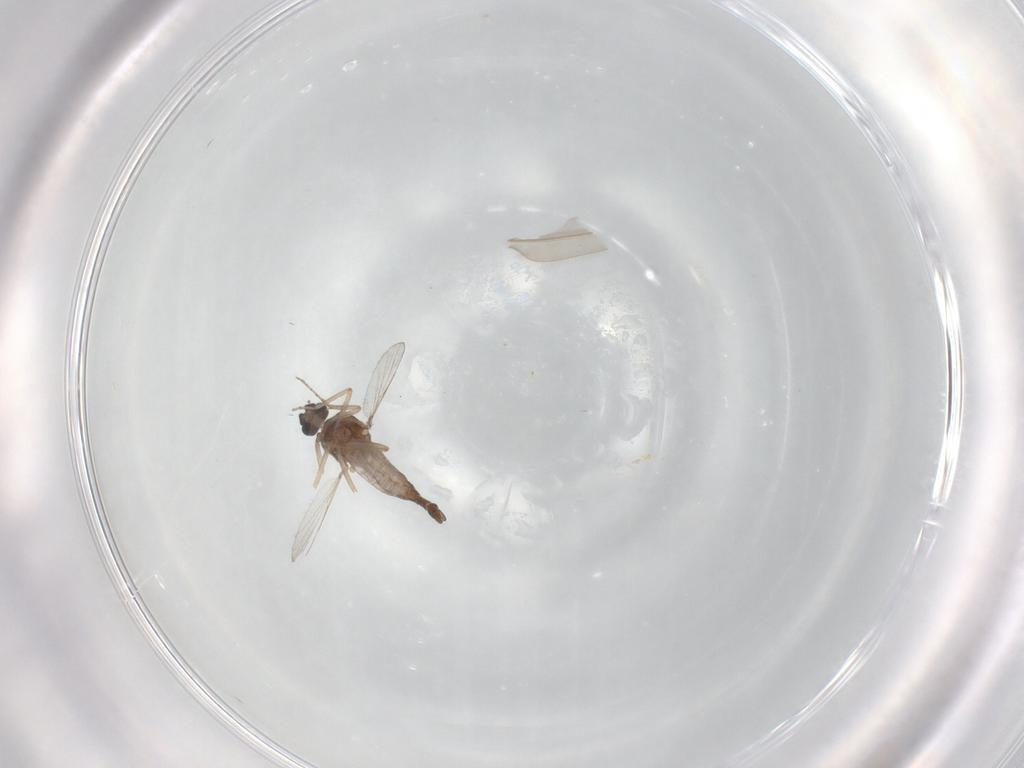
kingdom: Animalia
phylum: Arthropoda
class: Insecta
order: Diptera
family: Ceratopogonidae
